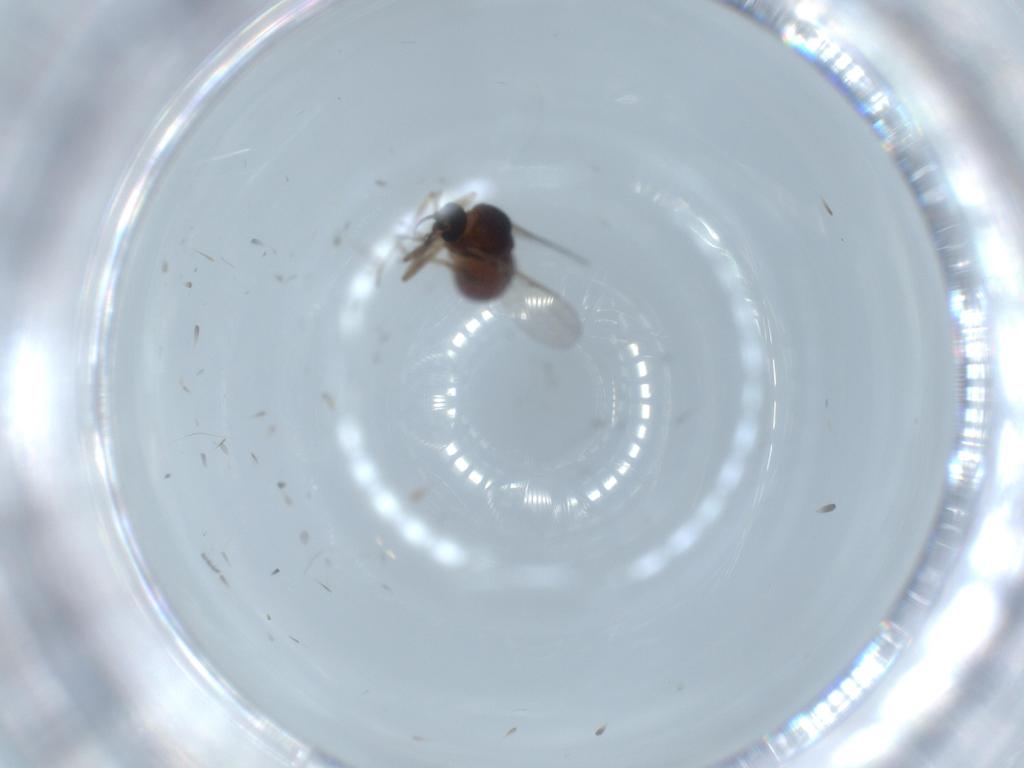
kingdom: Animalia
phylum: Arthropoda
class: Insecta
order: Diptera
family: Ceratopogonidae
